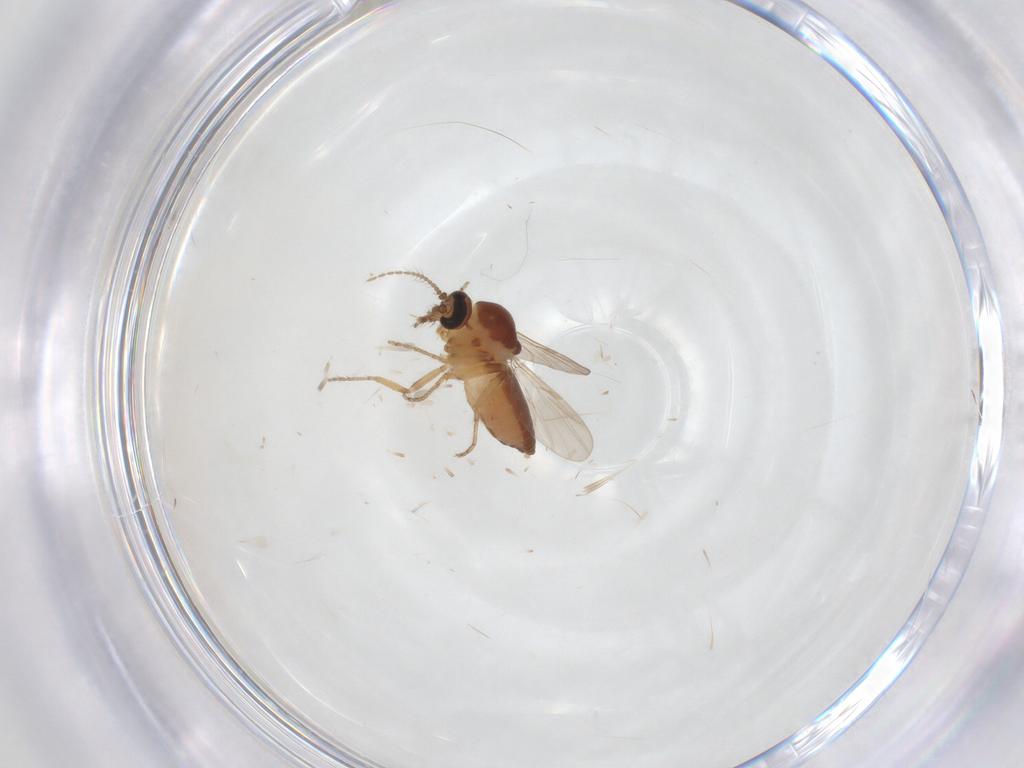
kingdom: Animalia
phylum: Arthropoda
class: Insecta
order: Diptera
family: Ceratopogonidae
